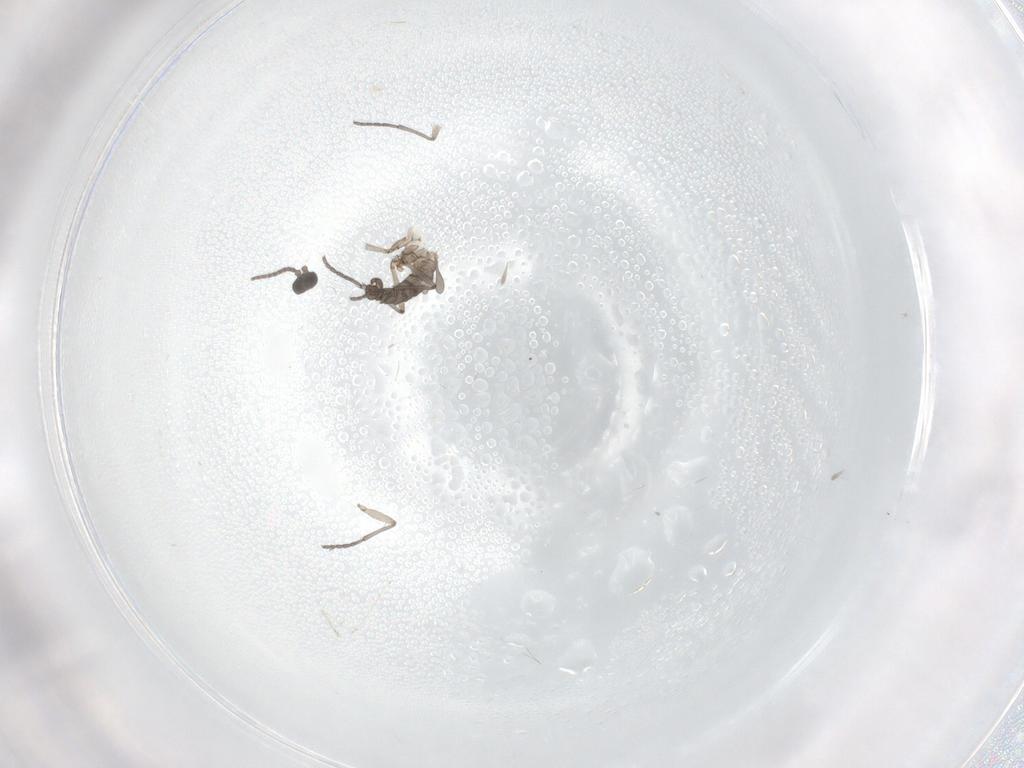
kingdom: Animalia
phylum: Arthropoda
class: Insecta
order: Diptera
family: Sciaridae
